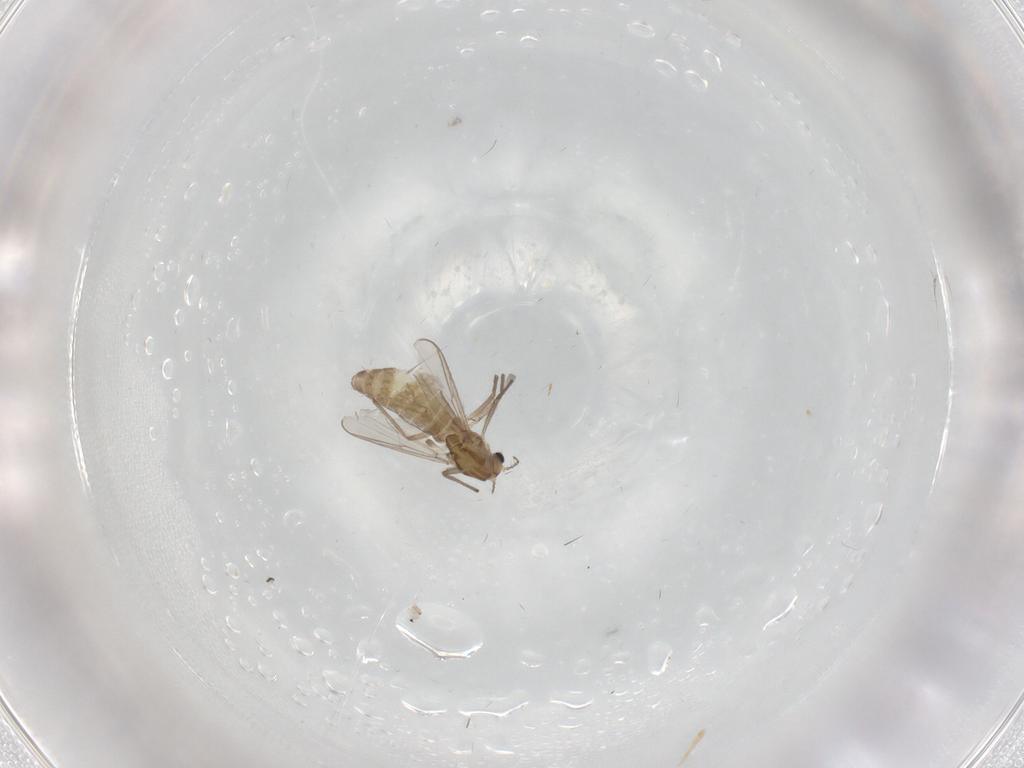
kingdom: Animalia
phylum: Arthropoda
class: Insecta
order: Diptera
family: Chironomidae
